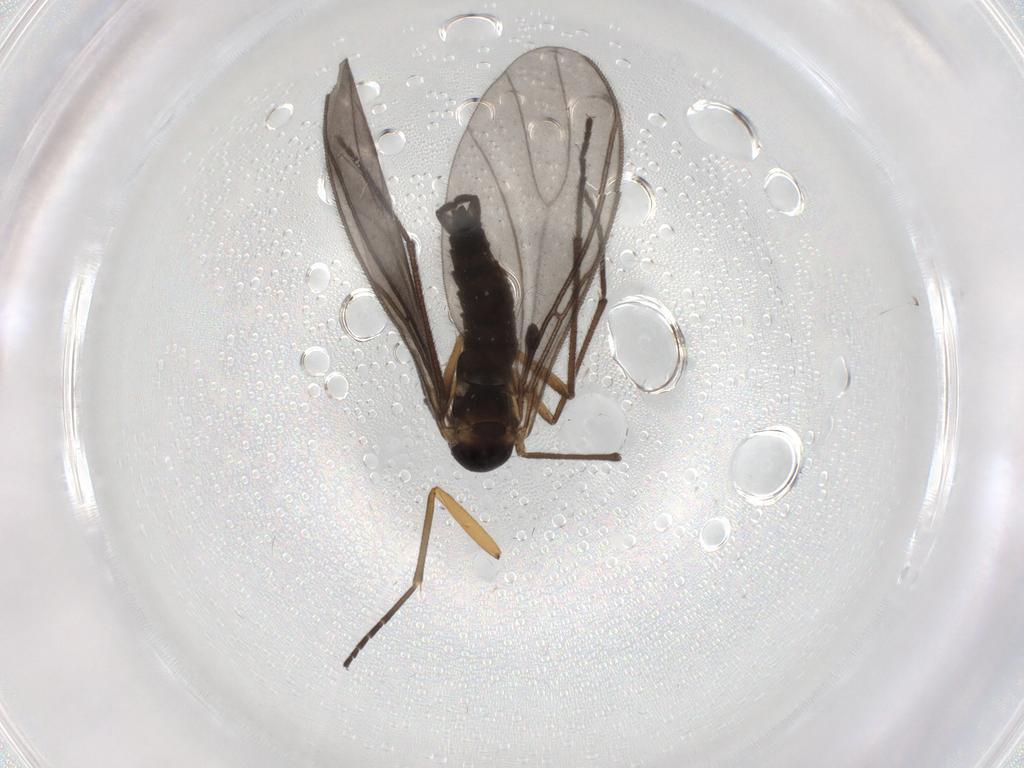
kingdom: Animalia
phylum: Arthropoda
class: Insecta
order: Diptera
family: Sciaridae
